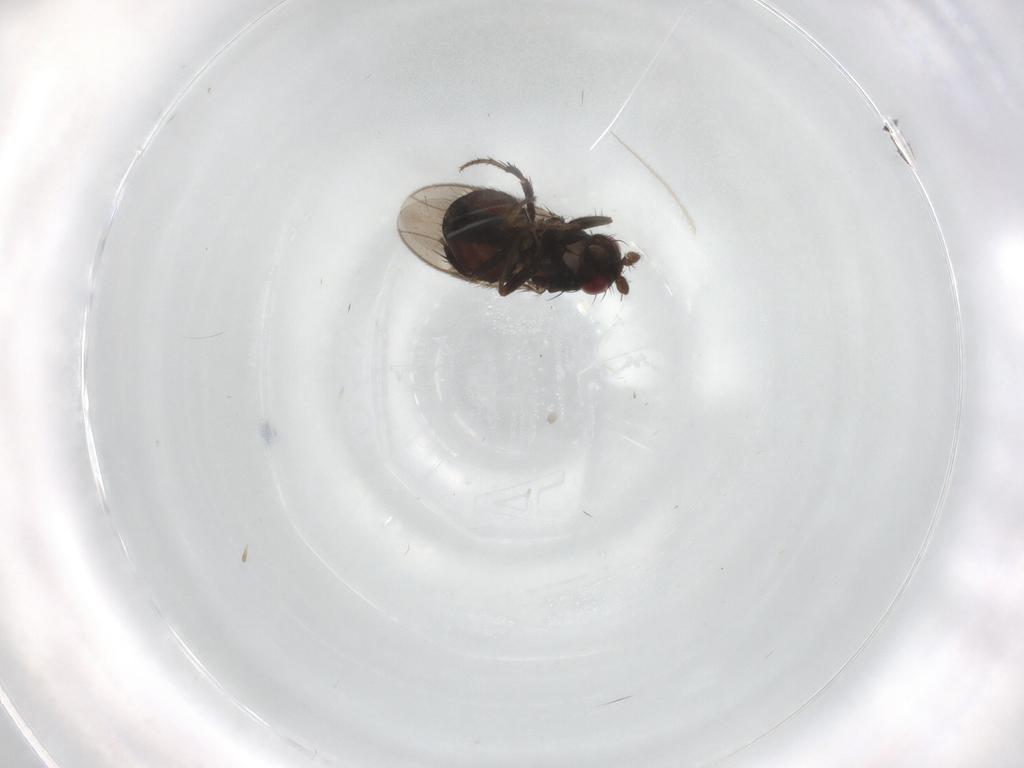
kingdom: Animalia
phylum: Arthropoda
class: Insecta
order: Diptera
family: Sphaeroceridae
